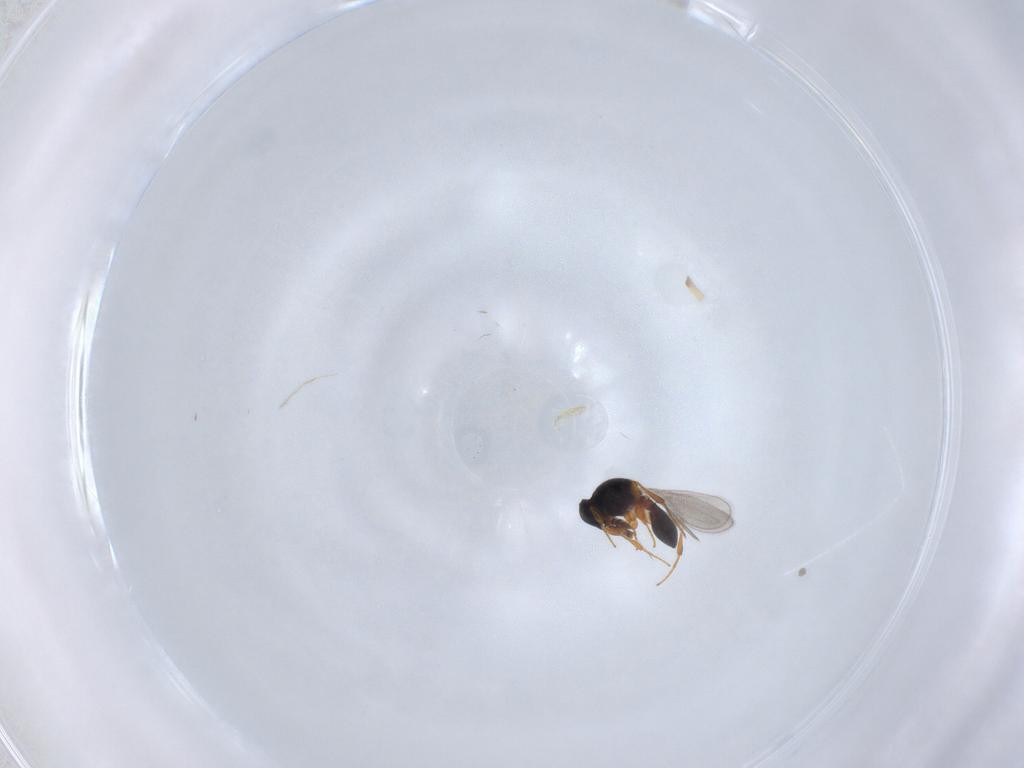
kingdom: Animalia
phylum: Arthropoda
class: Insecta
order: Hymenoptera
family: Platygastridae
